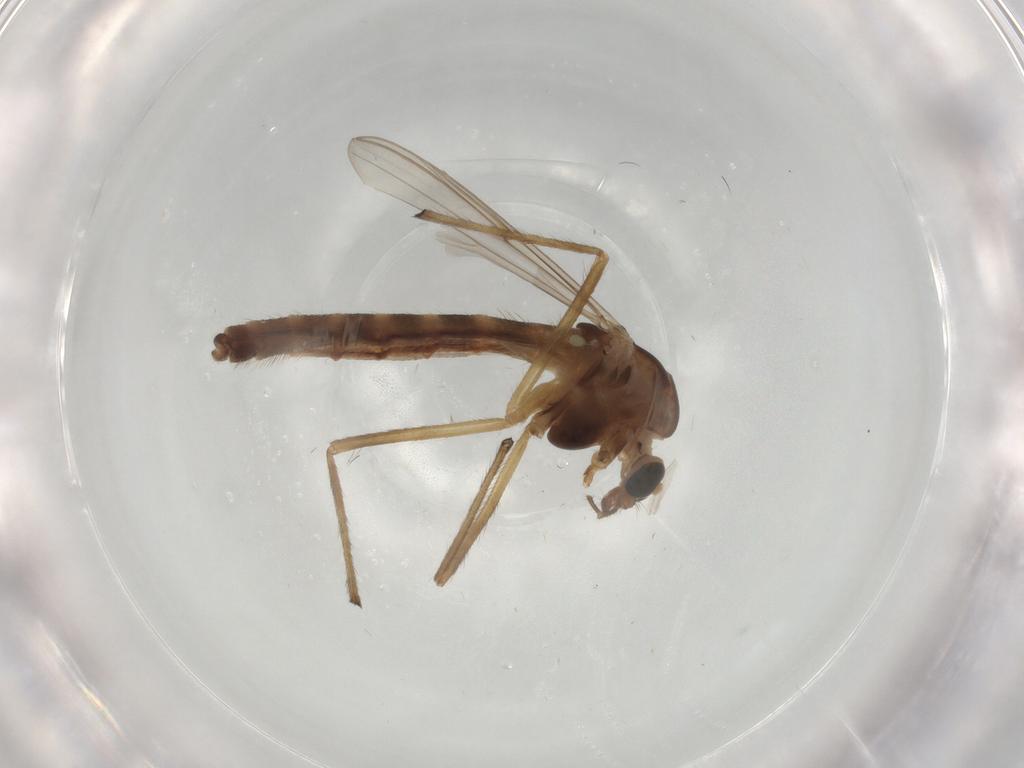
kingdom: Animalia
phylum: Arthropoda
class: Insecta
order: Diptera
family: Chironomidae
